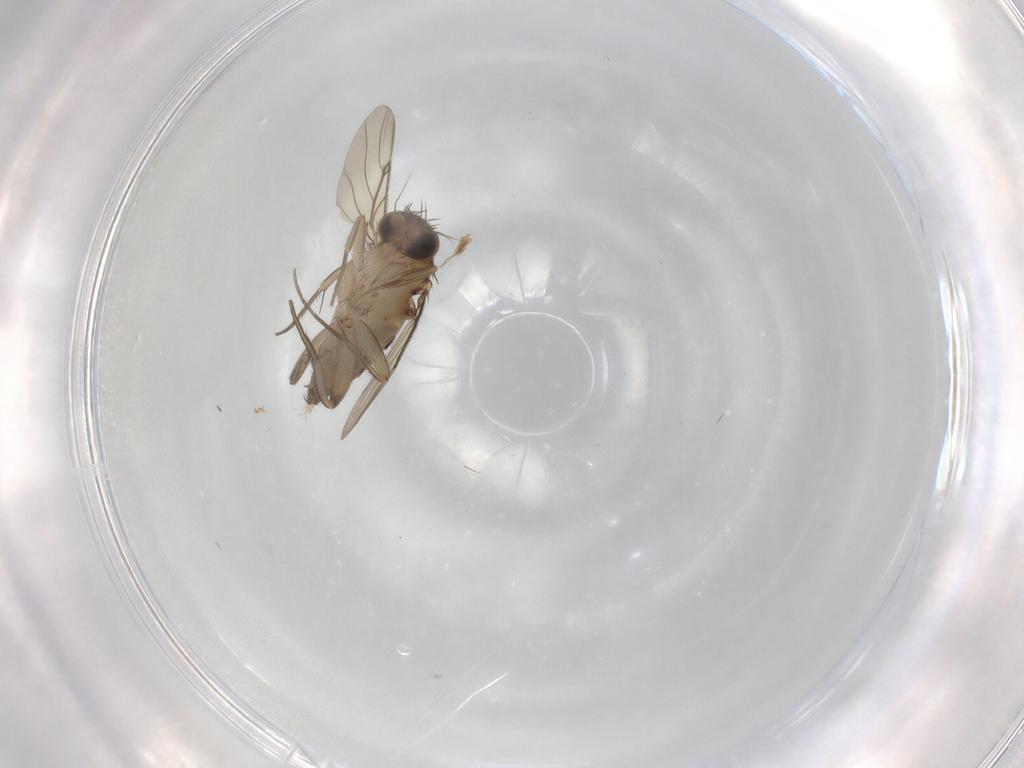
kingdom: Animalia
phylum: Arthropoda
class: Insecta
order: Diptera
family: Phoridae
